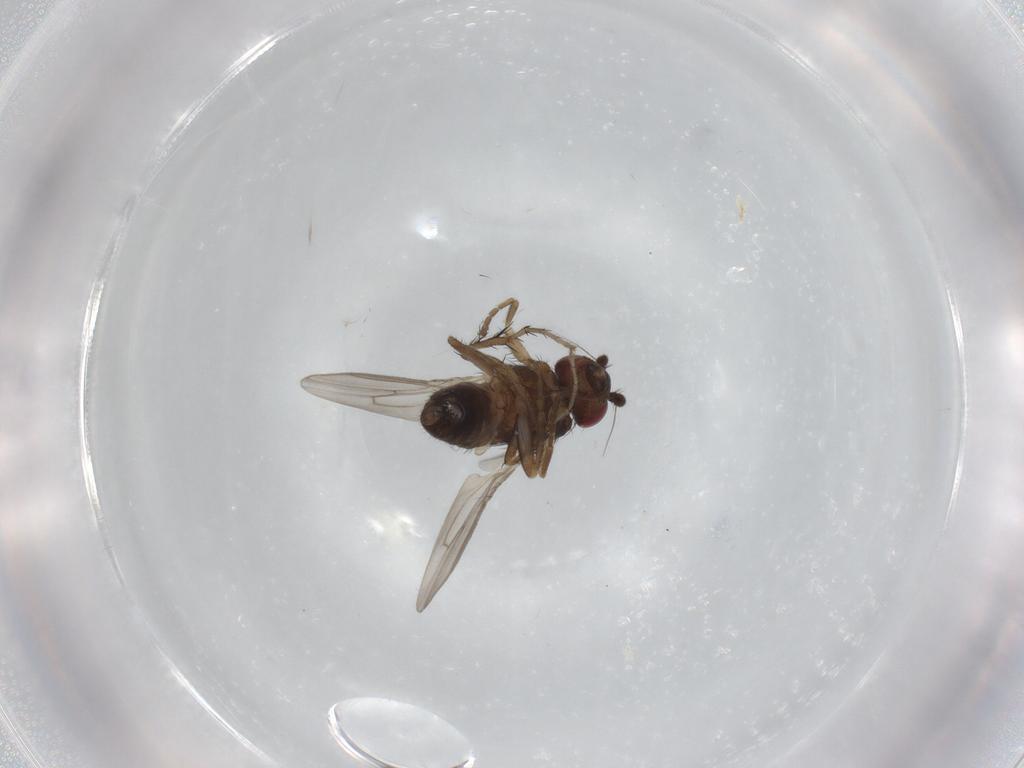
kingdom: Animalia
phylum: Arthropoda
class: Insecta
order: Diptera
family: Sphaeroceridae
